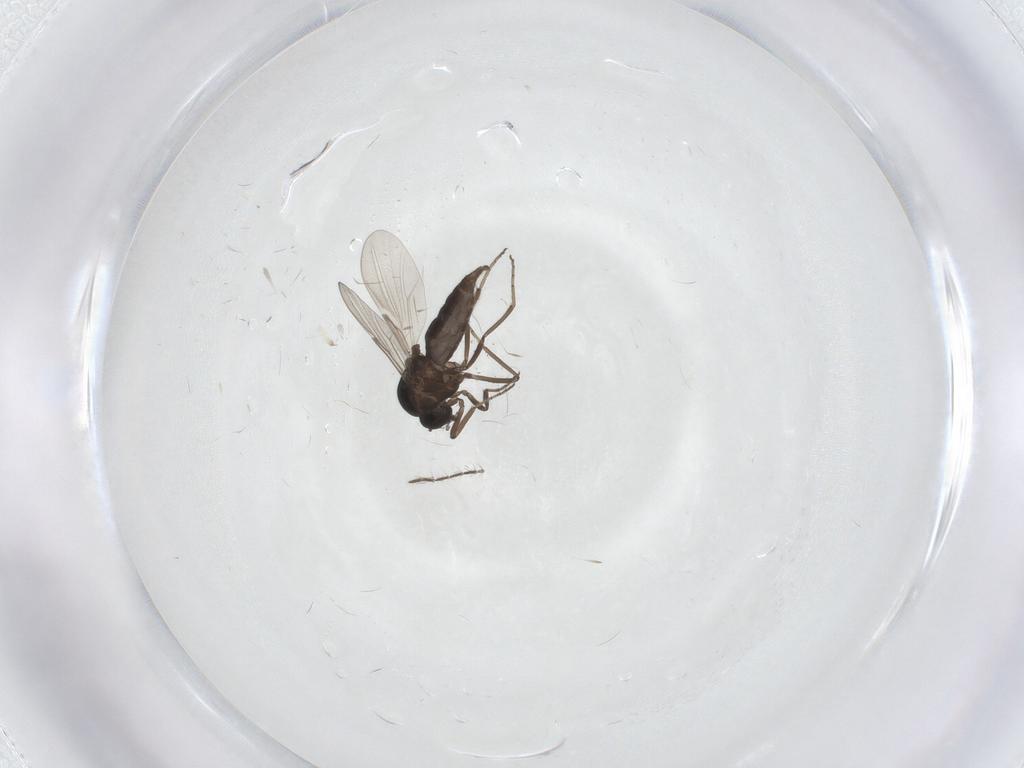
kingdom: Animalia
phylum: Arthropoda
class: Insecta
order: Diptera
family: Ceratopogonidae
